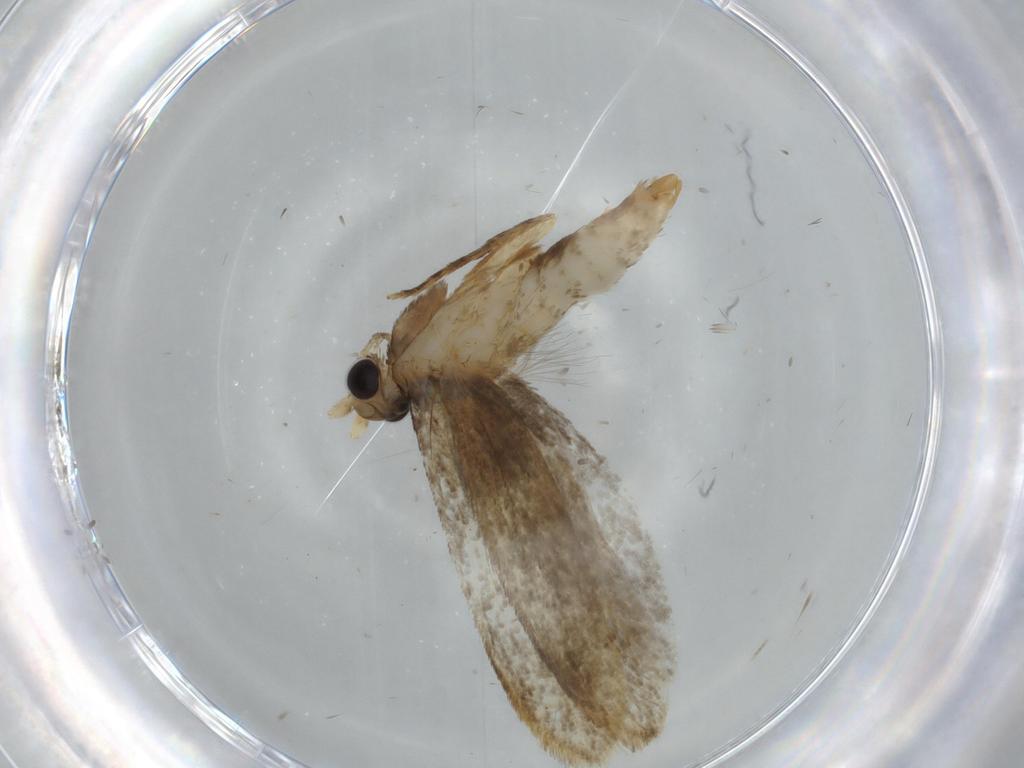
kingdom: Animalia
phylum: Arthropoda
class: Insecta
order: Lepidoptera
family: Tineidae
